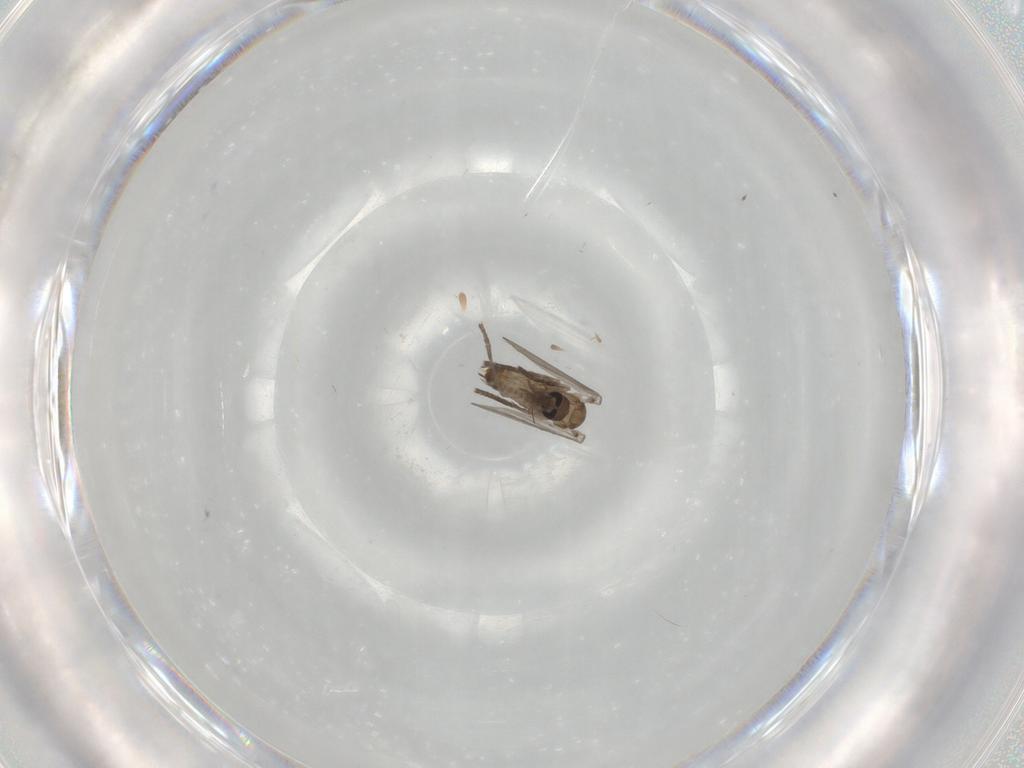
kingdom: Animalia
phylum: Arthropoda
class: Insecta
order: Diptera
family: Psychodidae
